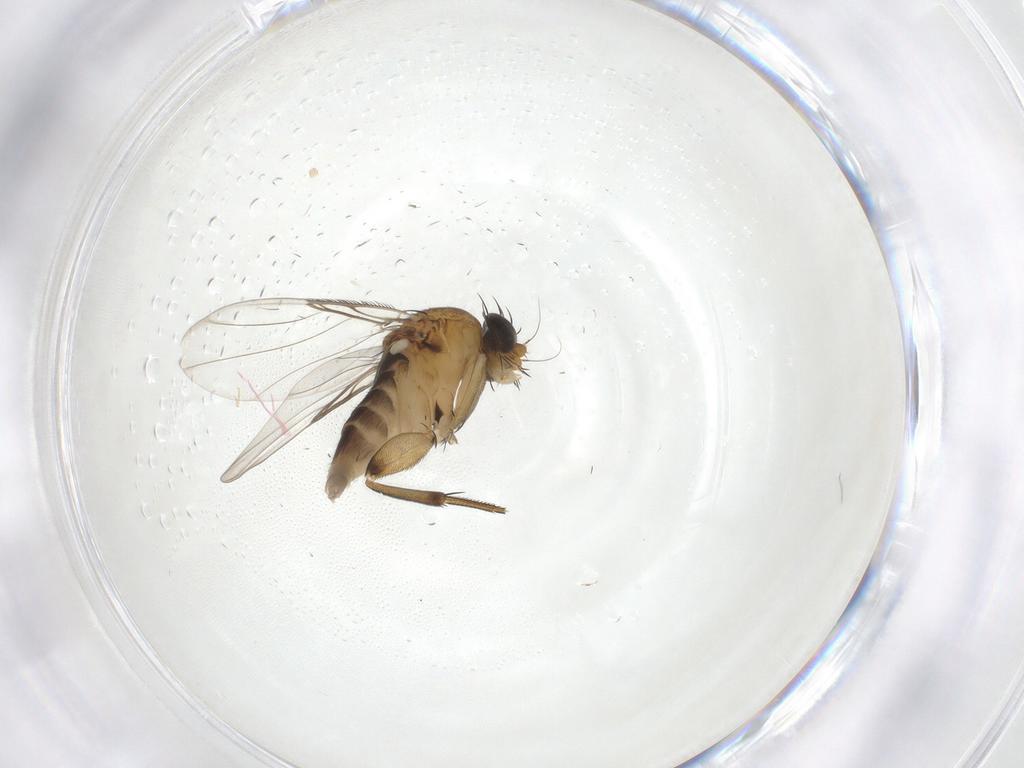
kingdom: Animalia
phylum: Arthropoda
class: Insecta
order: Diptera
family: Phoridae
